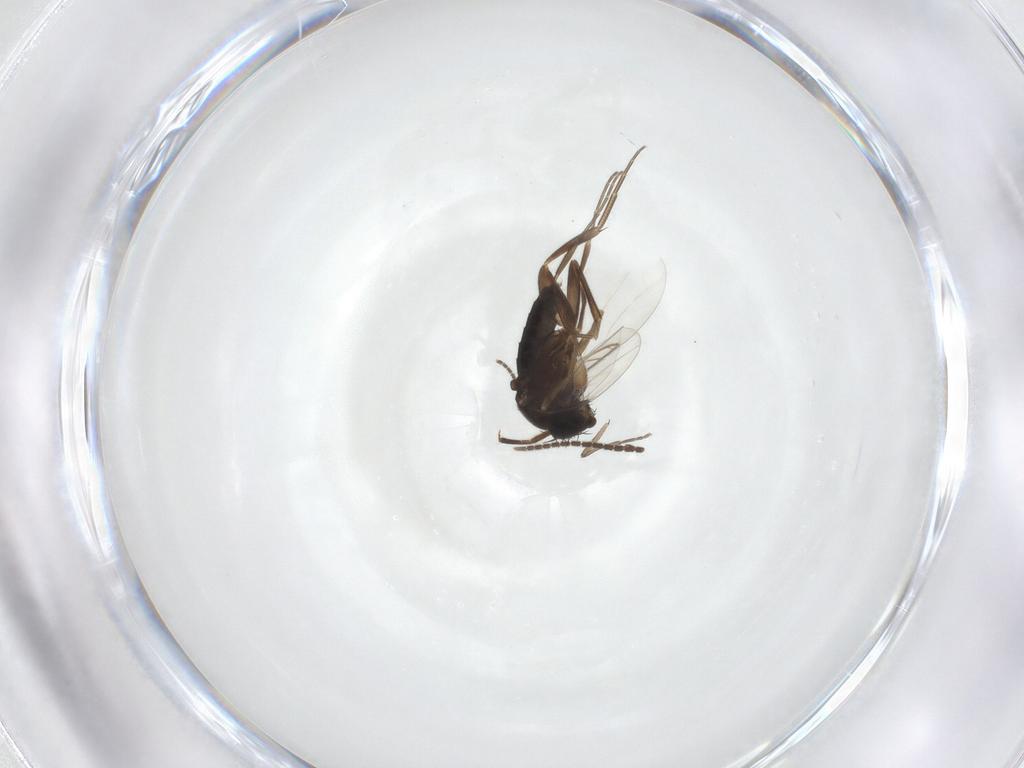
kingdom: Animalia
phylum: Arthropoda
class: Insecta
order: Diptera
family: Phoridae
